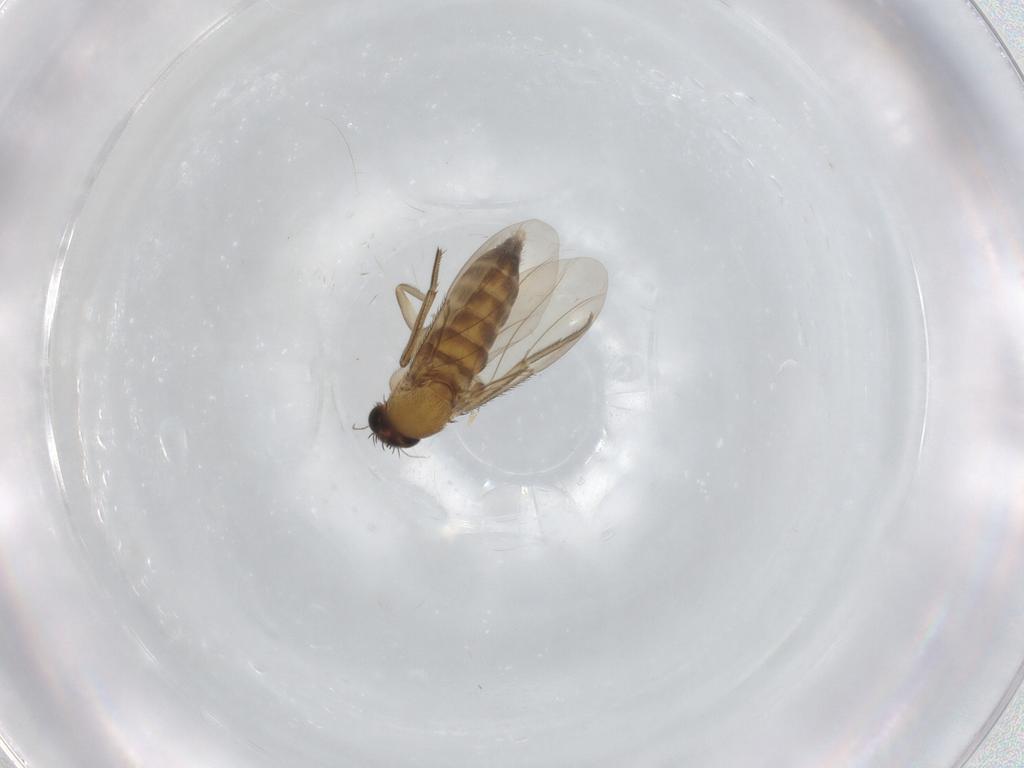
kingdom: Animalia
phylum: Arthropoda
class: Insecta
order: Diptera
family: Phoridae
